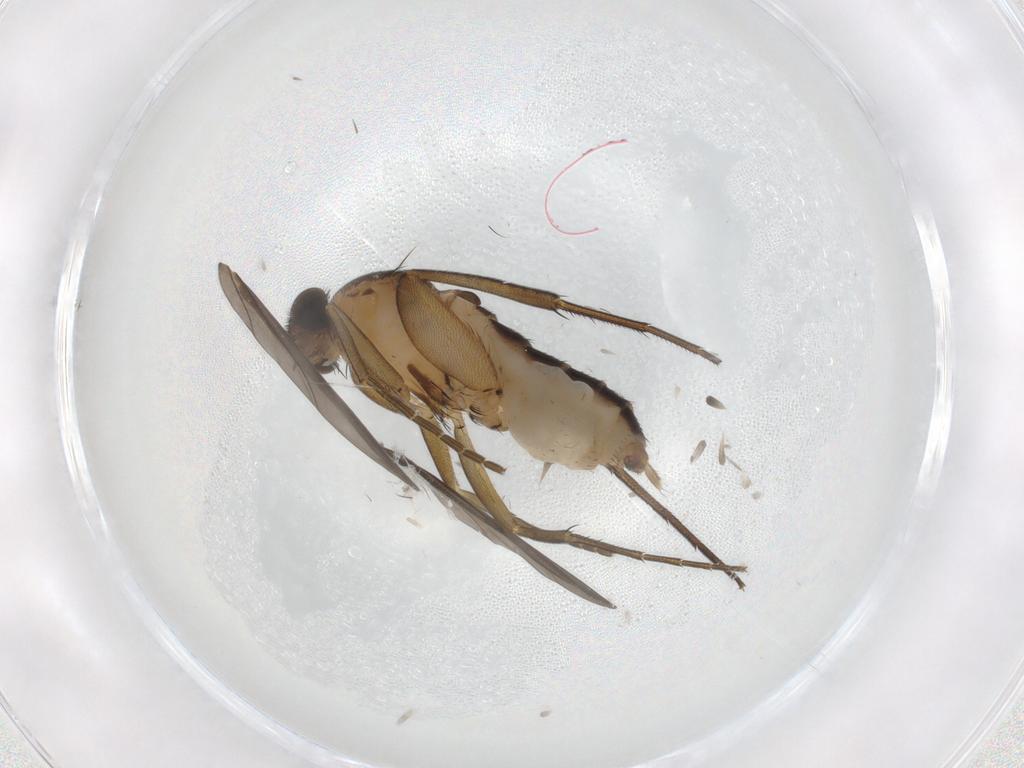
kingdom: Animalia
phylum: Arthropoda
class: Insecta
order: Diptera
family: Phoridae
